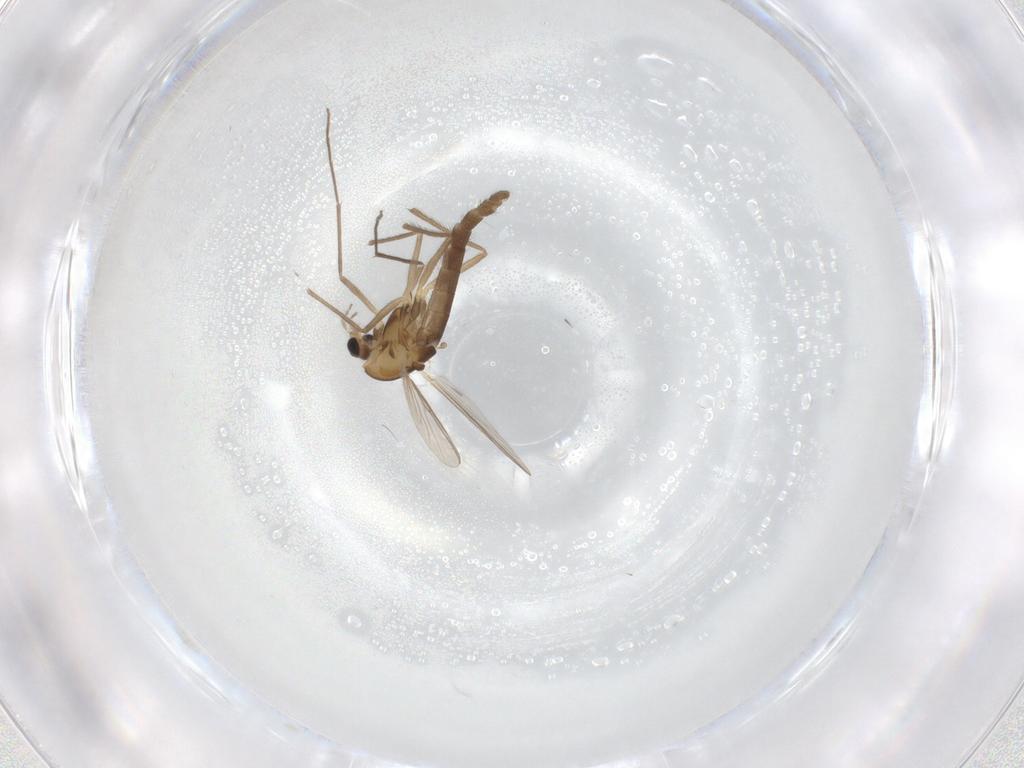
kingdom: Animalia
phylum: Arthropoda
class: Insecta
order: Diptera
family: Chironomidae
